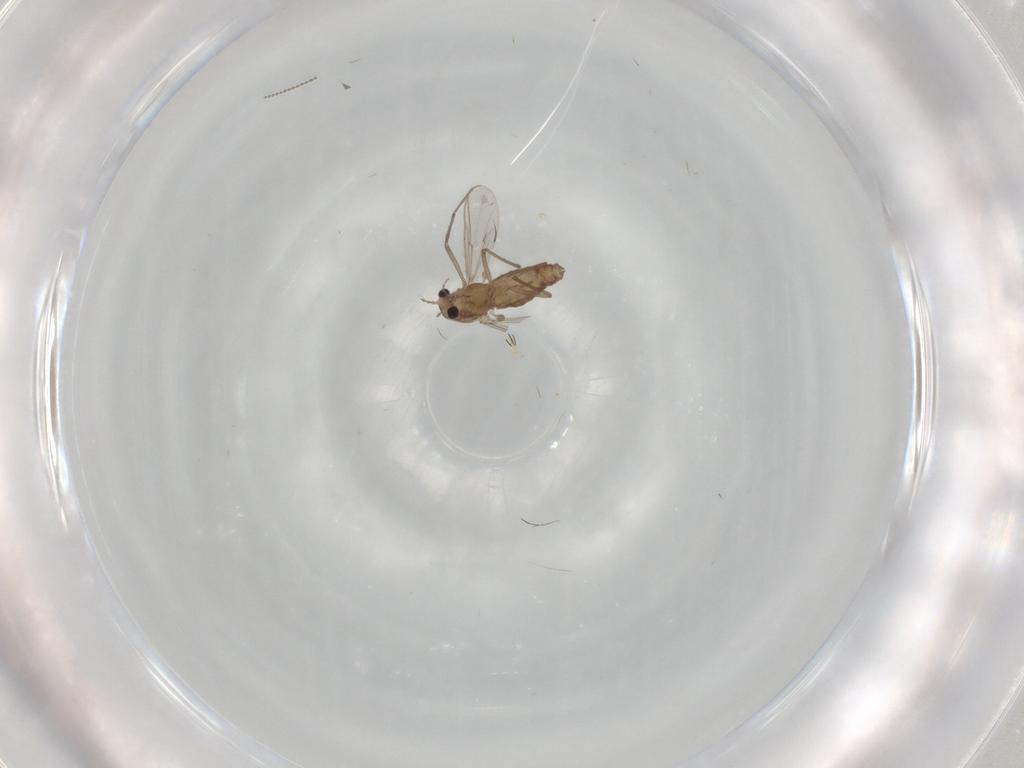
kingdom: Animalia
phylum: Arthropoda
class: Insecta
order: Diptera
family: Chironomidae
